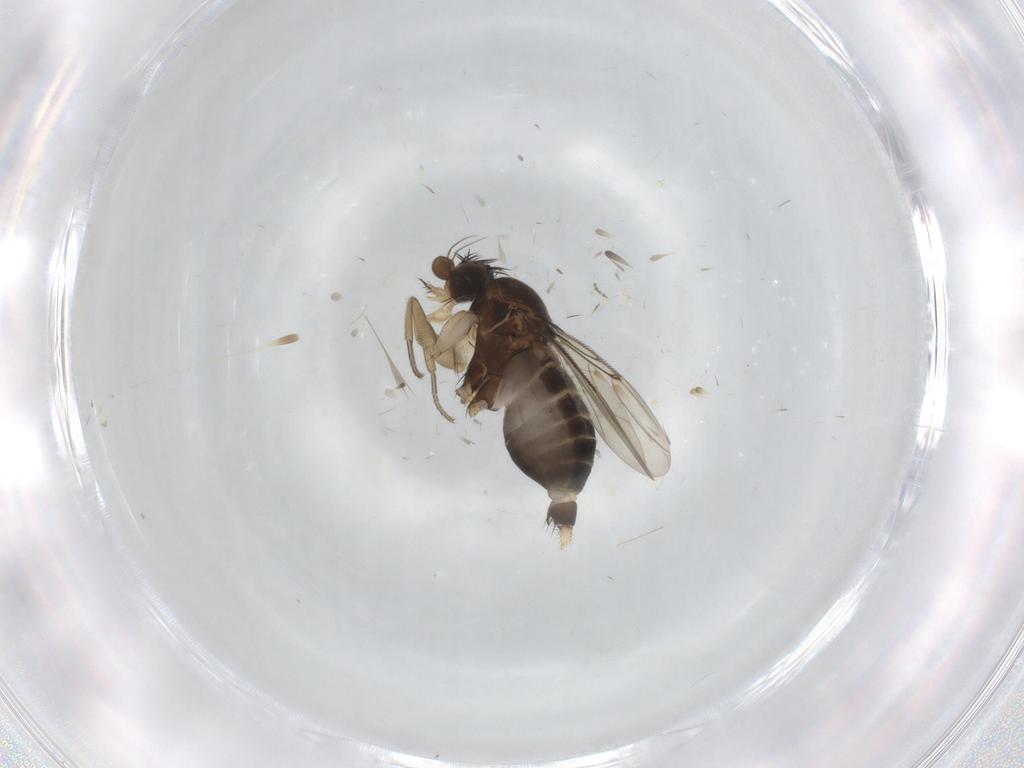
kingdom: Animalia
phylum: Arthropoda
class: Insecta
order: Diptera
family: Phoridae
